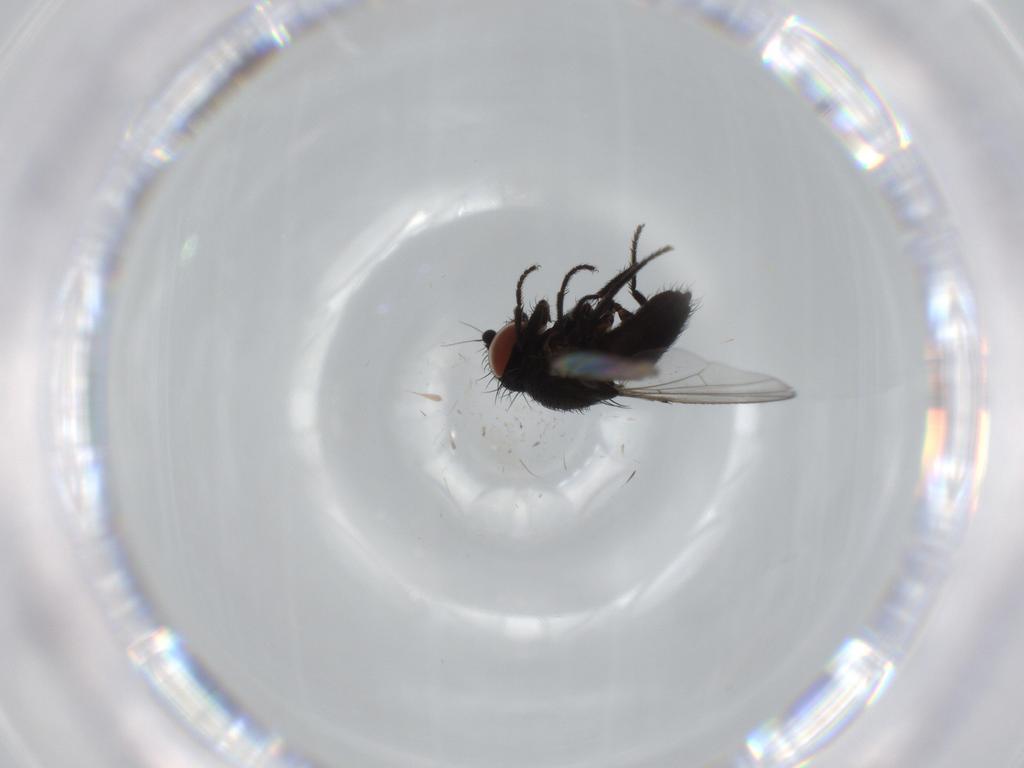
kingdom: Animalia
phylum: Arthropoda
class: Insecta
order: Diptera
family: Milichiidae
